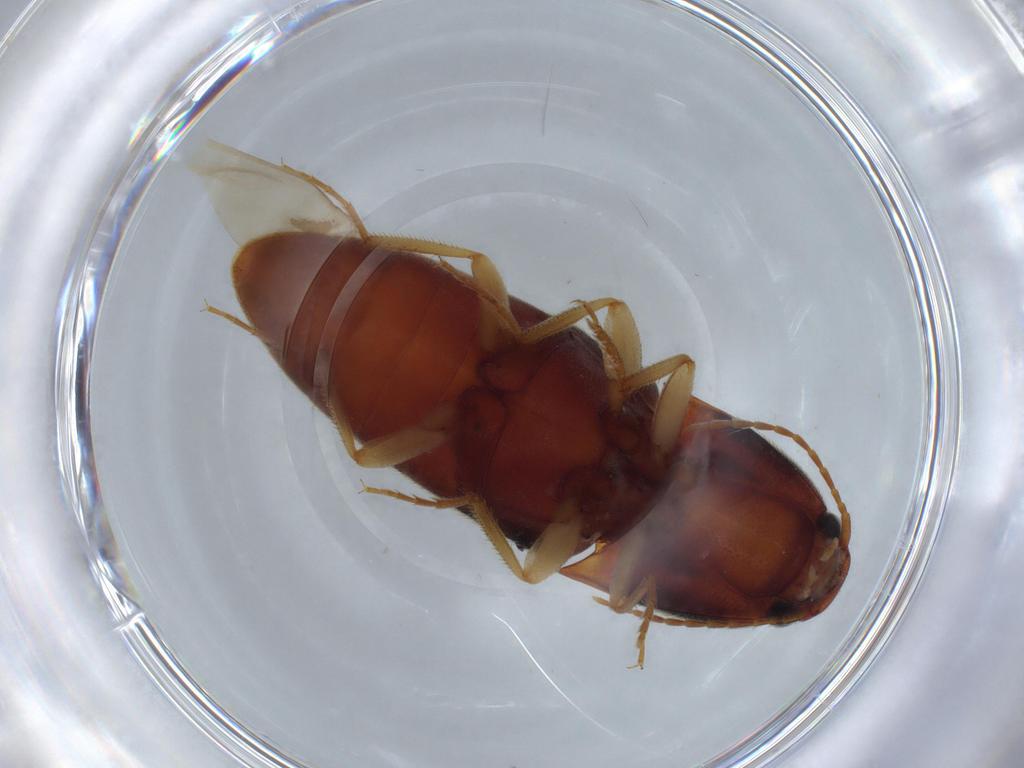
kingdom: Animalia
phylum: Arthropoda
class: Insecta
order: Coleoptera
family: Elateridae
